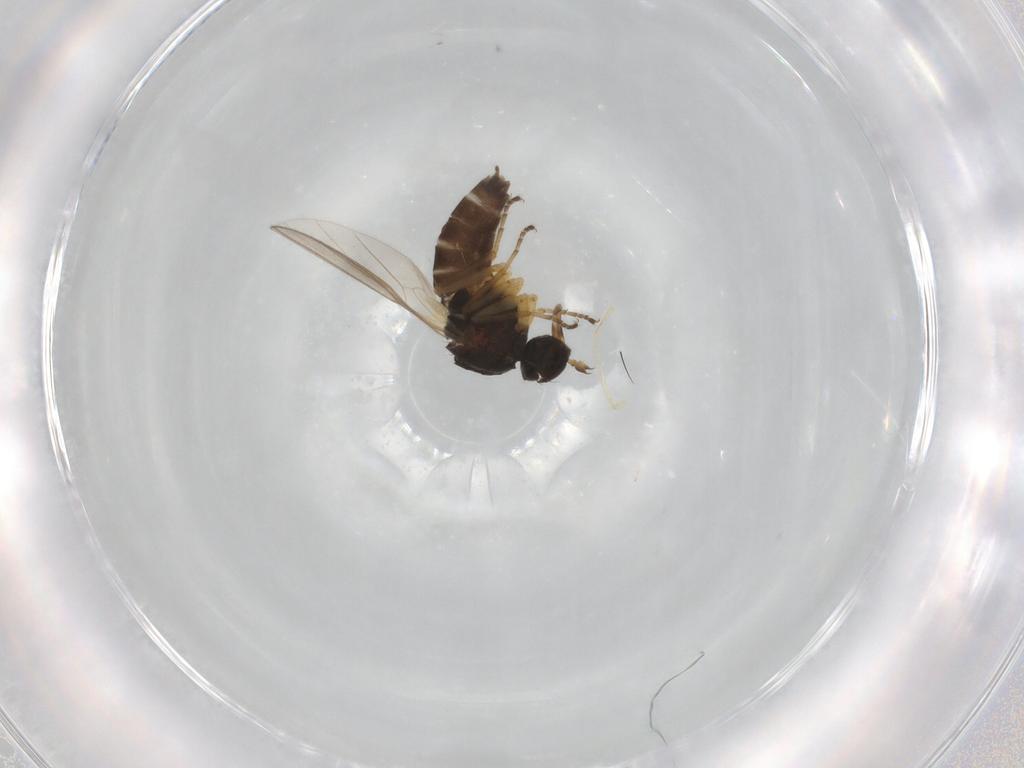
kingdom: Animalia
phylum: Arthropoda
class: Insecta
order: Diptera
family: Hybotidae
